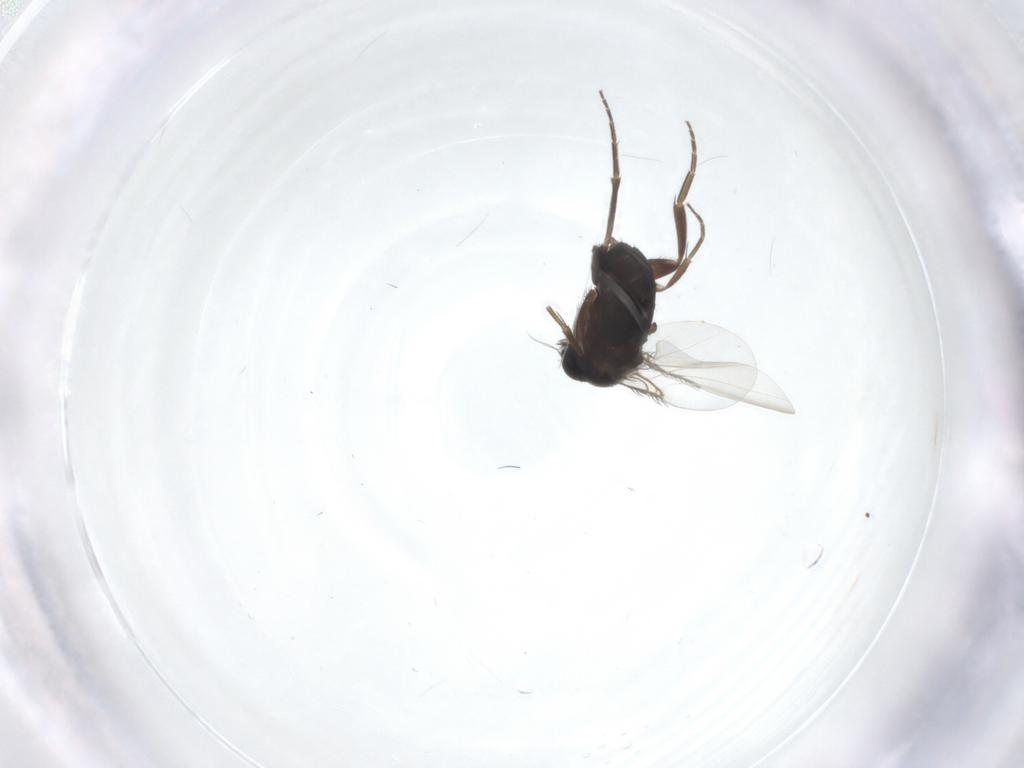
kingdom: Animalia
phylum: Arthropoda
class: Insecta
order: Diptera
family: Phoridae
